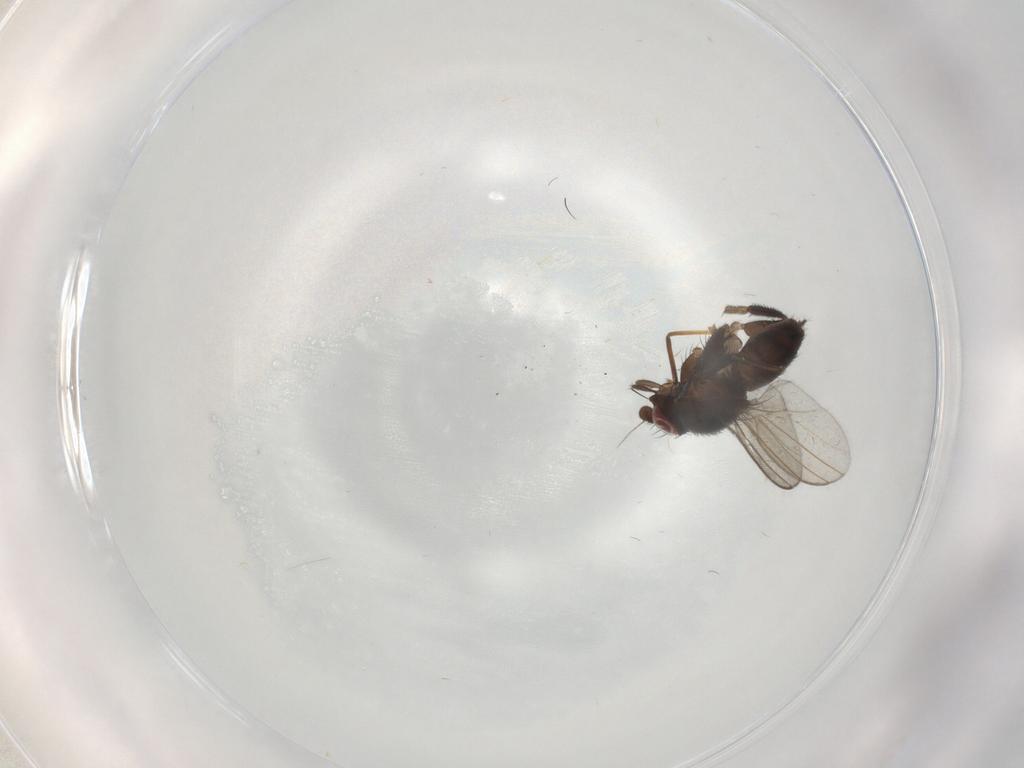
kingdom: Animalia
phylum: Arthropoda
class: Insecta
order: Diptera
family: Milichiidae
